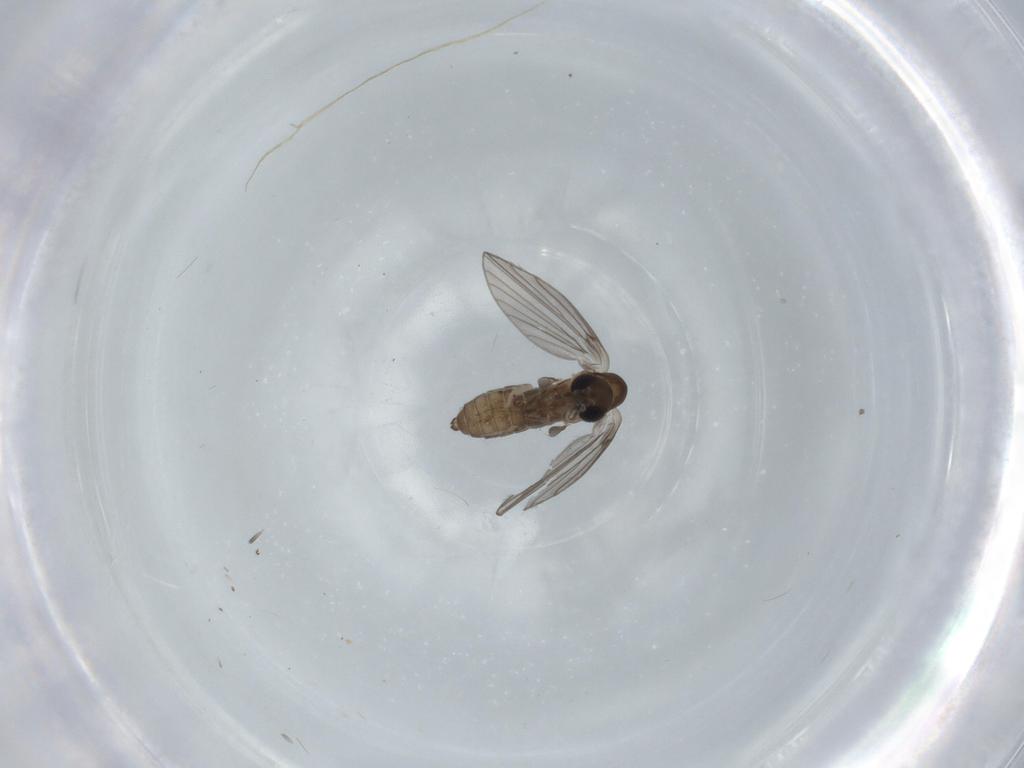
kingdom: Animalia
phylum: Arthropoda
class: Insecta
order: Diptera
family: Psychodidae
